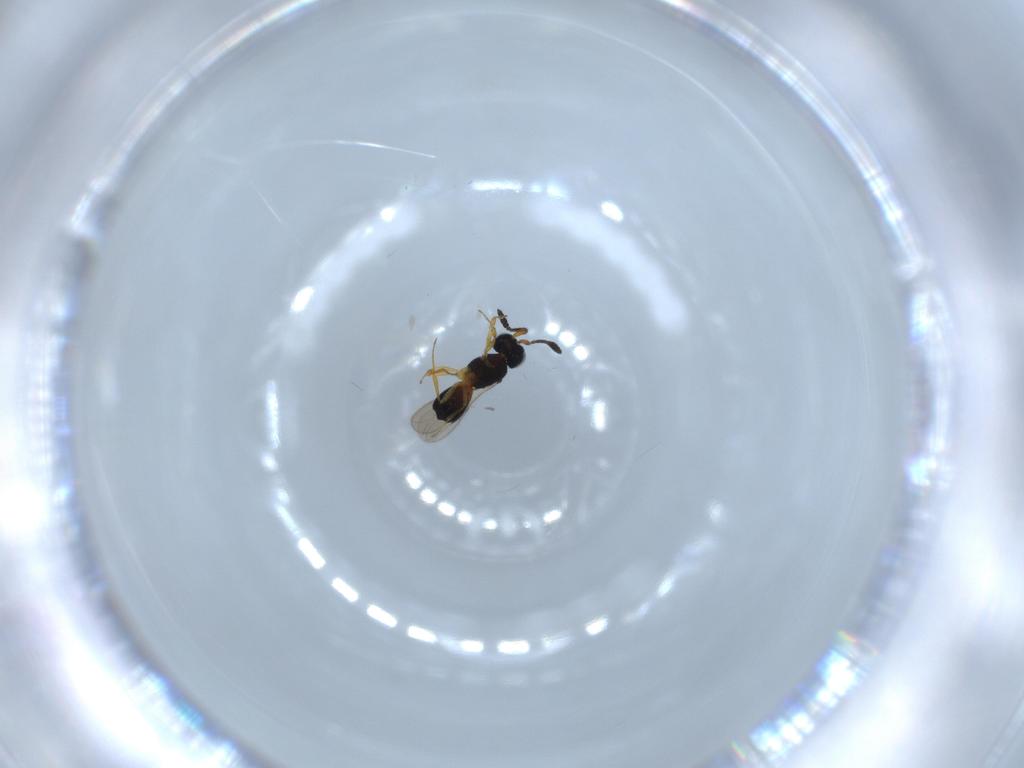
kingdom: Animalia
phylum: Arthropoda
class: Insecta
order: Hymenoptera
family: Scelionidae
